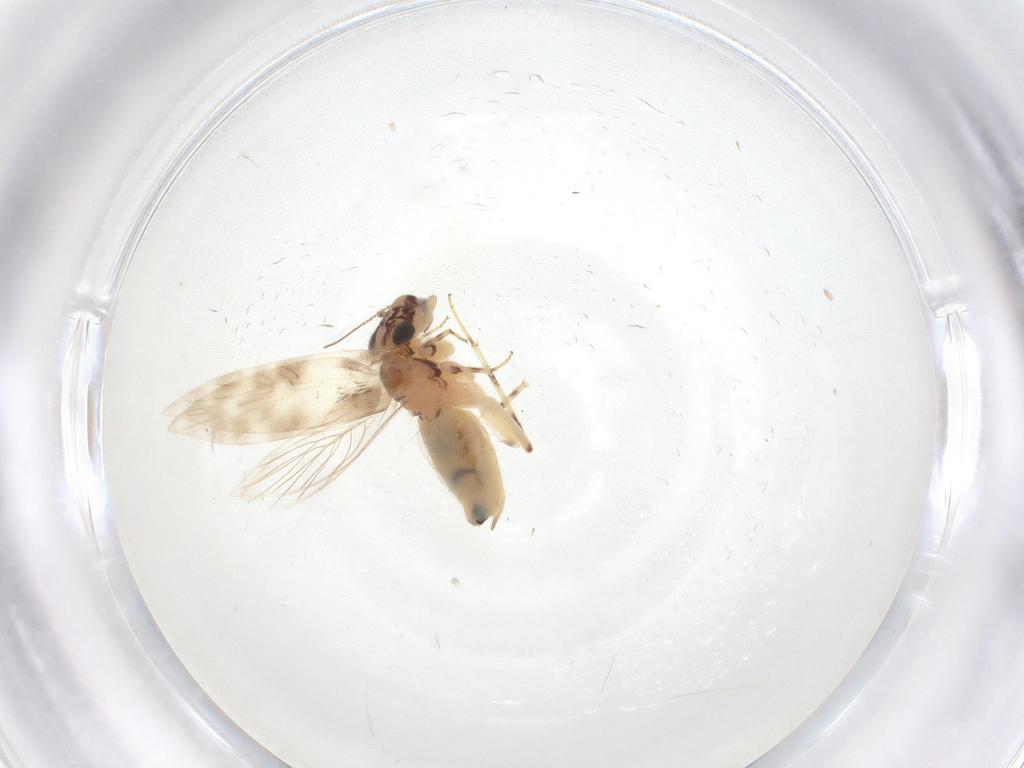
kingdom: Animalia
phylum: Arthropoda
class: Insecta
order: Psocodea
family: Lepidopsocidae
